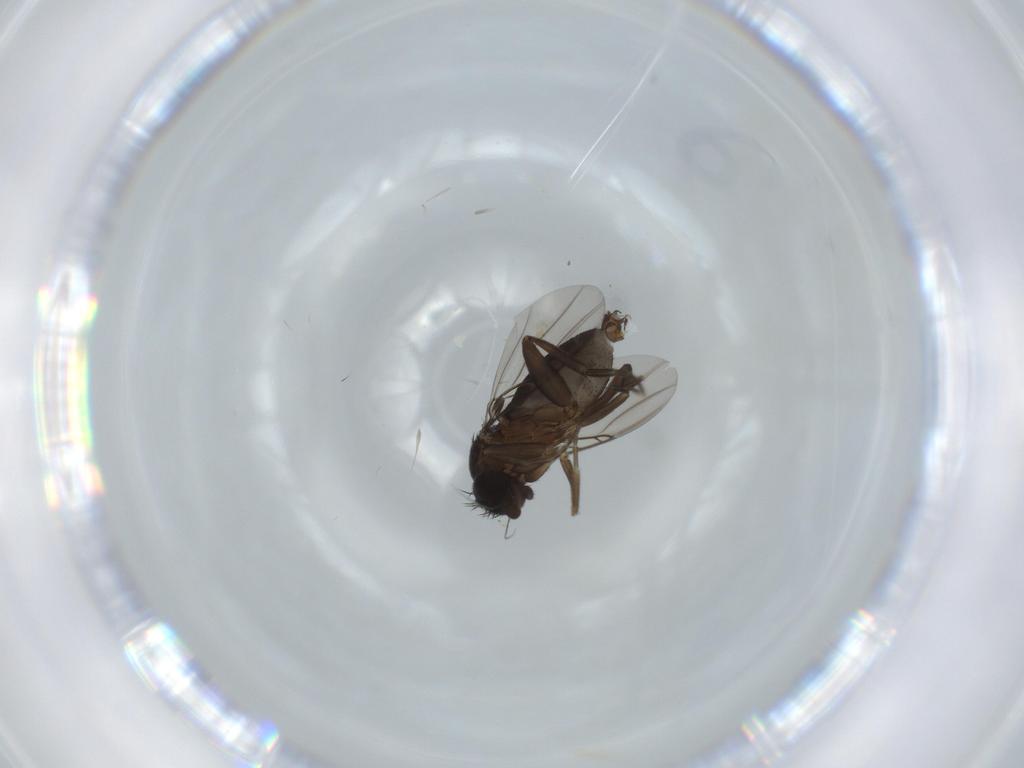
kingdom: Animalia
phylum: Arthropoda
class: Insecta
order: Diptera
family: Phoridae
